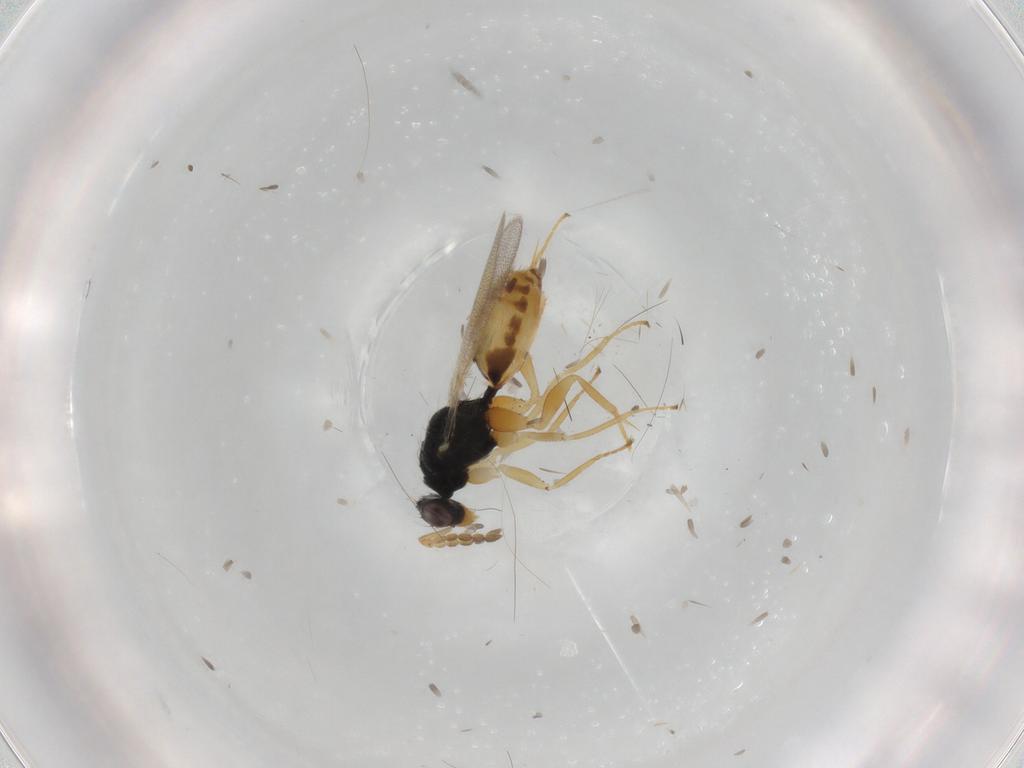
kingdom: Animalia
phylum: Arthropoda
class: Insecta
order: Hymenoptera
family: Eulophidae
